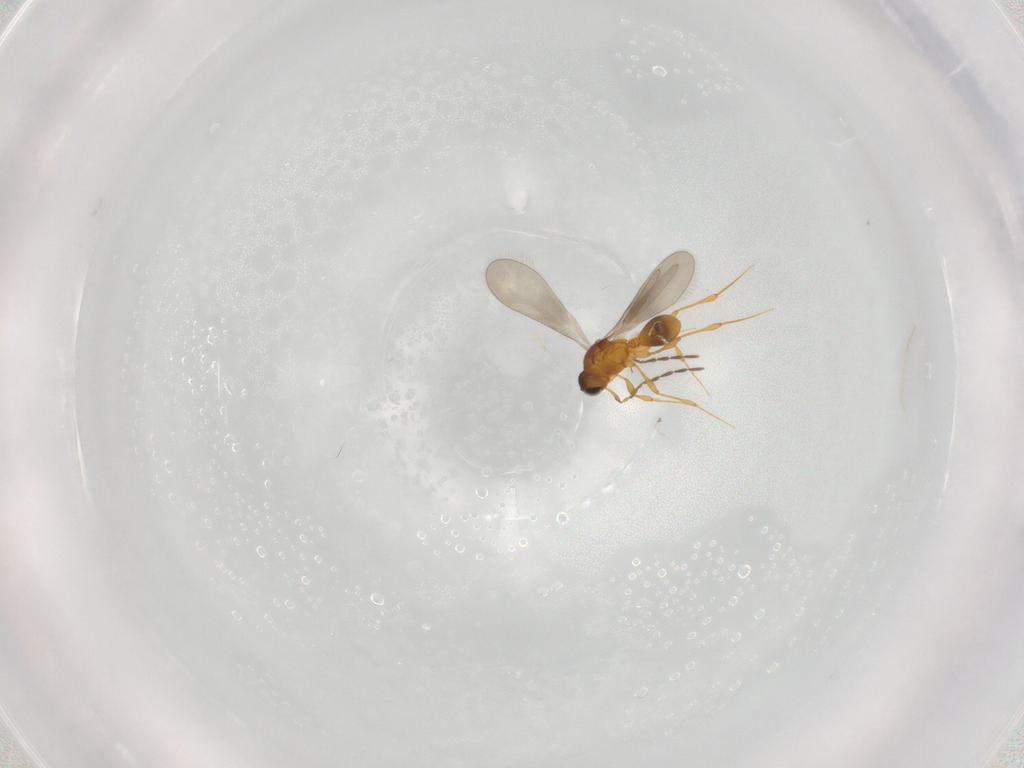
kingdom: Animalia
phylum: Arthropoda
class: Insecta
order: Hymenoptera
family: Platygastridae
